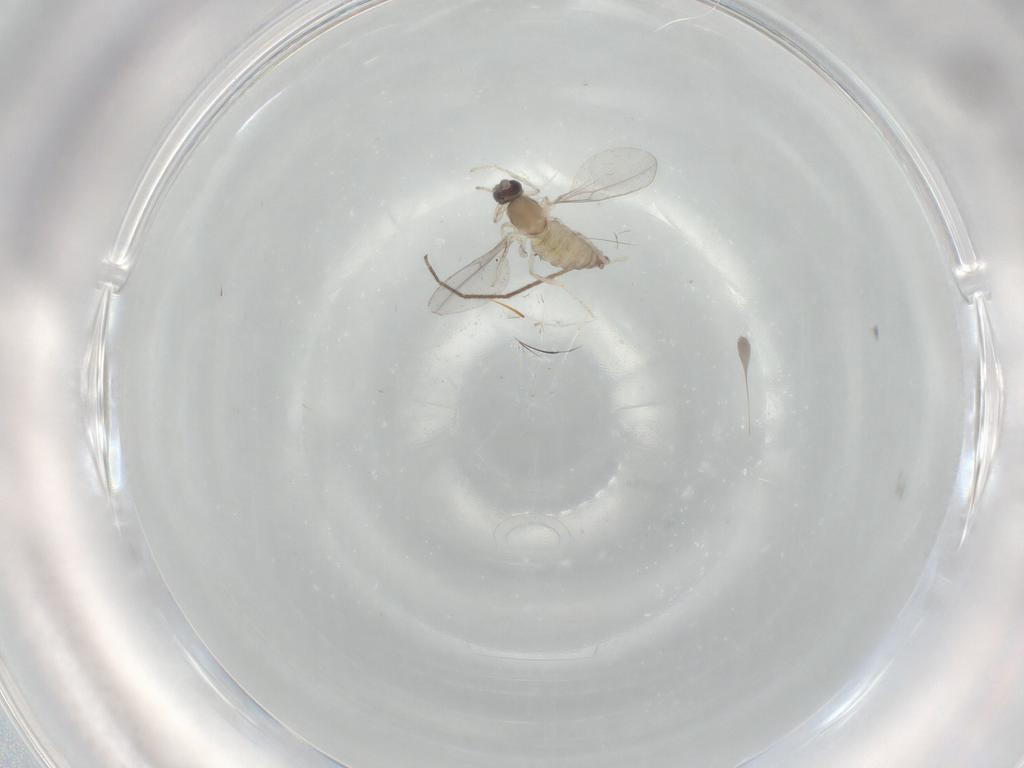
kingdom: Animalia
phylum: Arthropoda
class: Insecta
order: Diptera
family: Cecidomyiidae
